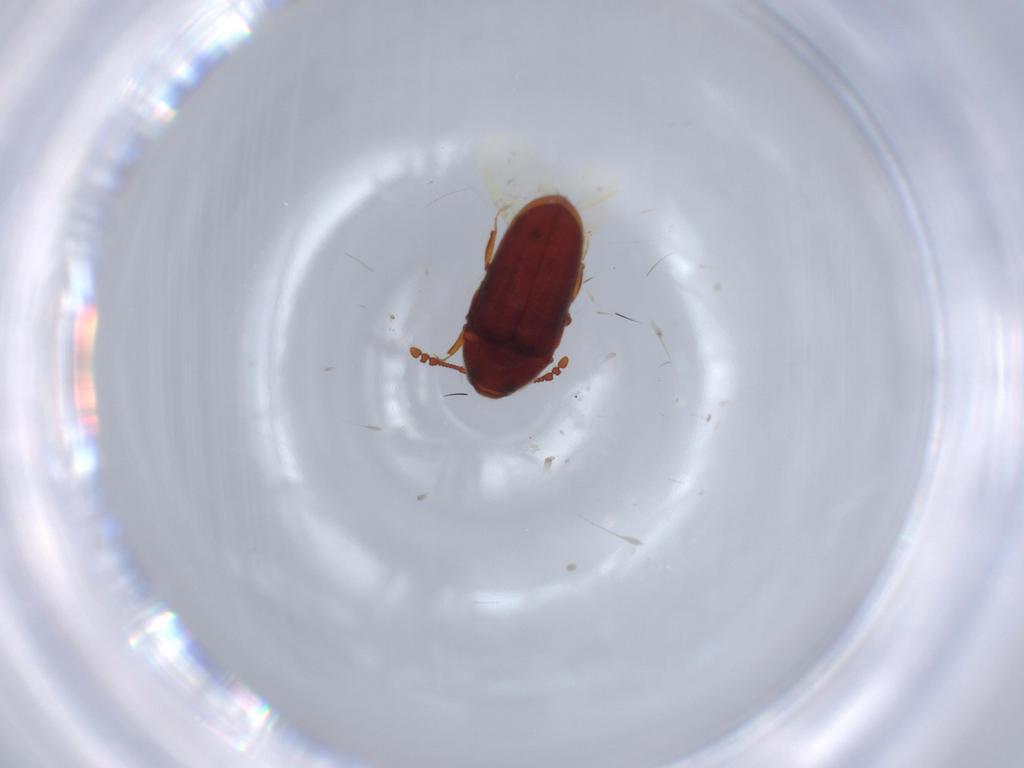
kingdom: Animalia
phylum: Arthropoda
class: Insecta
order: Coleoptera
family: Throscidae
